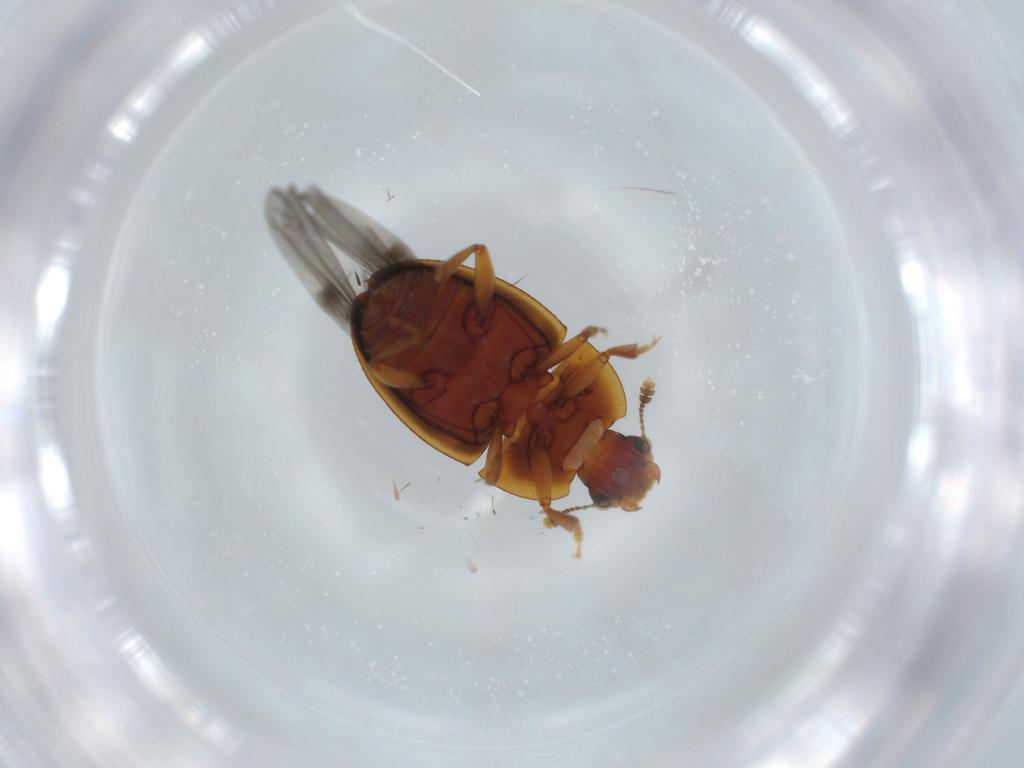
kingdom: Animalia
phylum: Arthropoda
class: Insecta
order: Coleoptera
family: Nitidulidae
